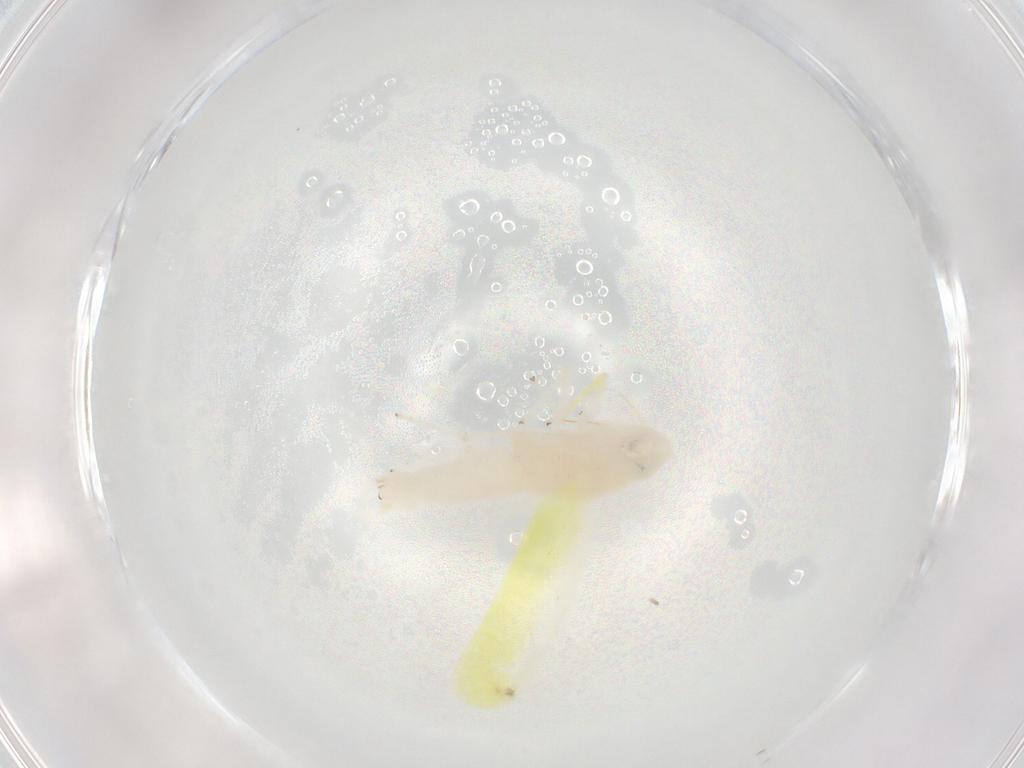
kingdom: Animalia
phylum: Arthropoda
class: Insecta
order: Hemiptera
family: Cicadellidae
